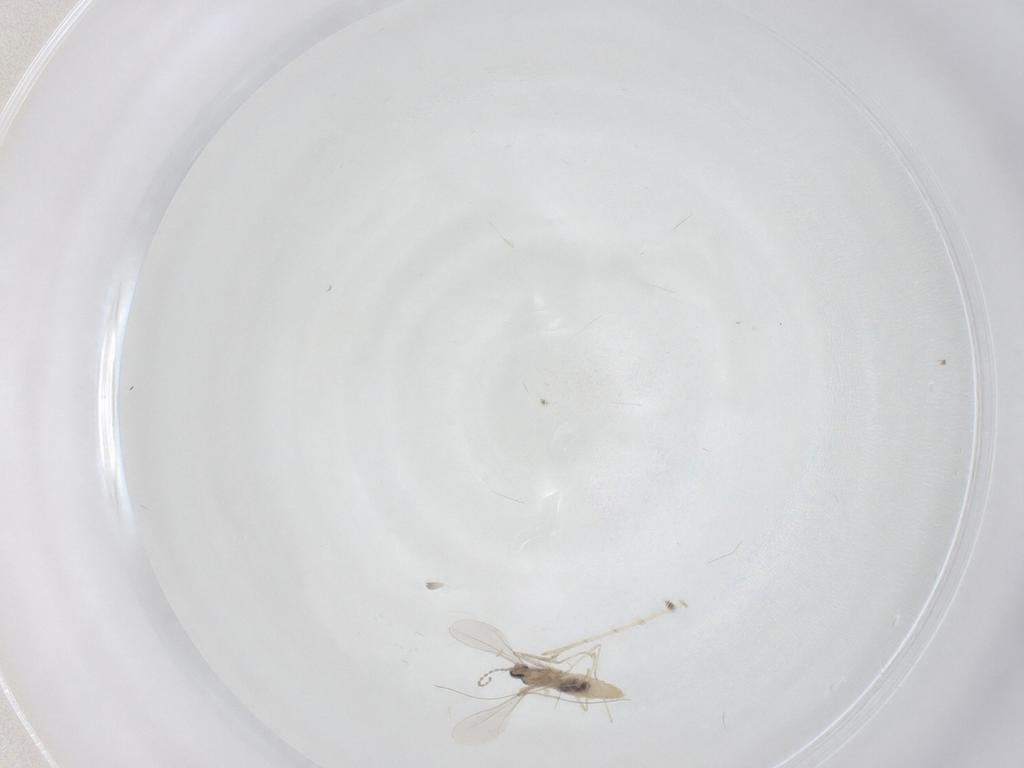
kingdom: Animalia
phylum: Arthropoda
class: Insecta
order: Diptera
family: Cecidomyiidae
